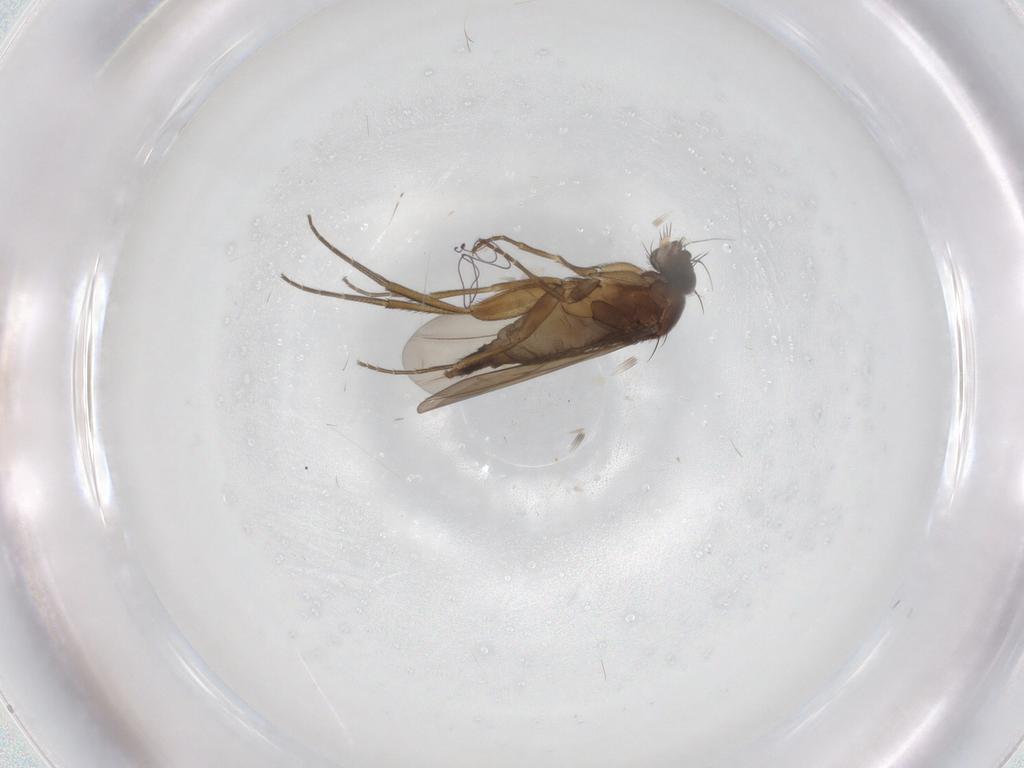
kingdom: Animalia
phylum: Arthropoda
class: Insecta
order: Diptera
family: Phoridae
